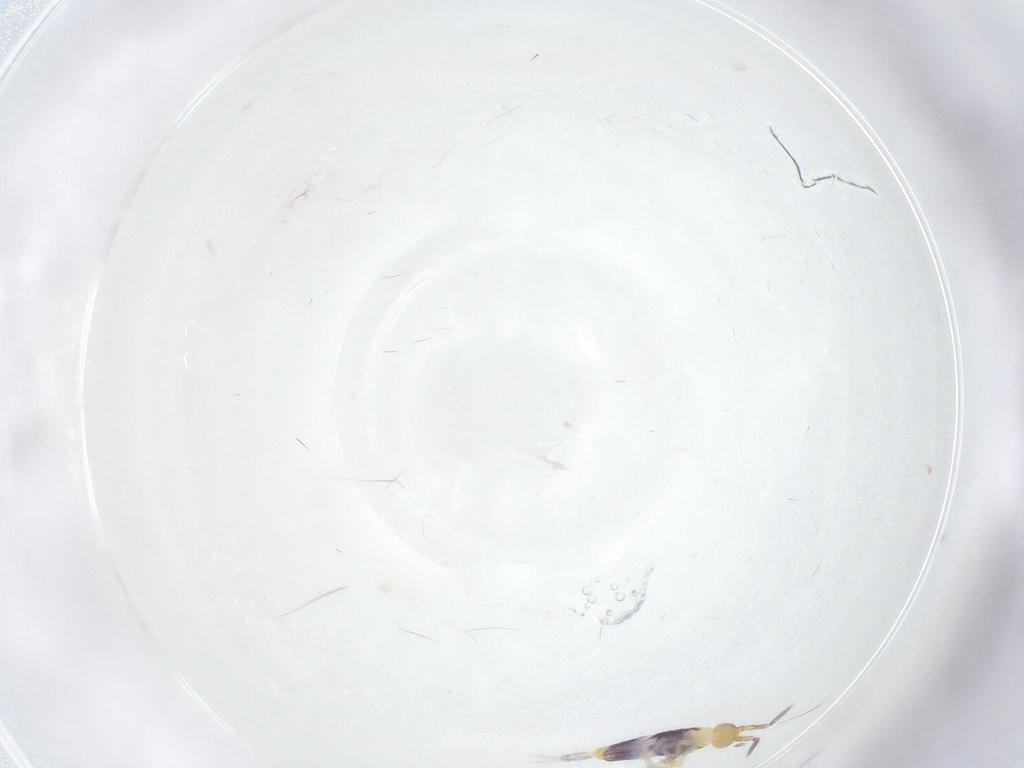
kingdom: Animalia
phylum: Arthropoda
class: Collembola
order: Entomobryomorpha
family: Entomobryidae
